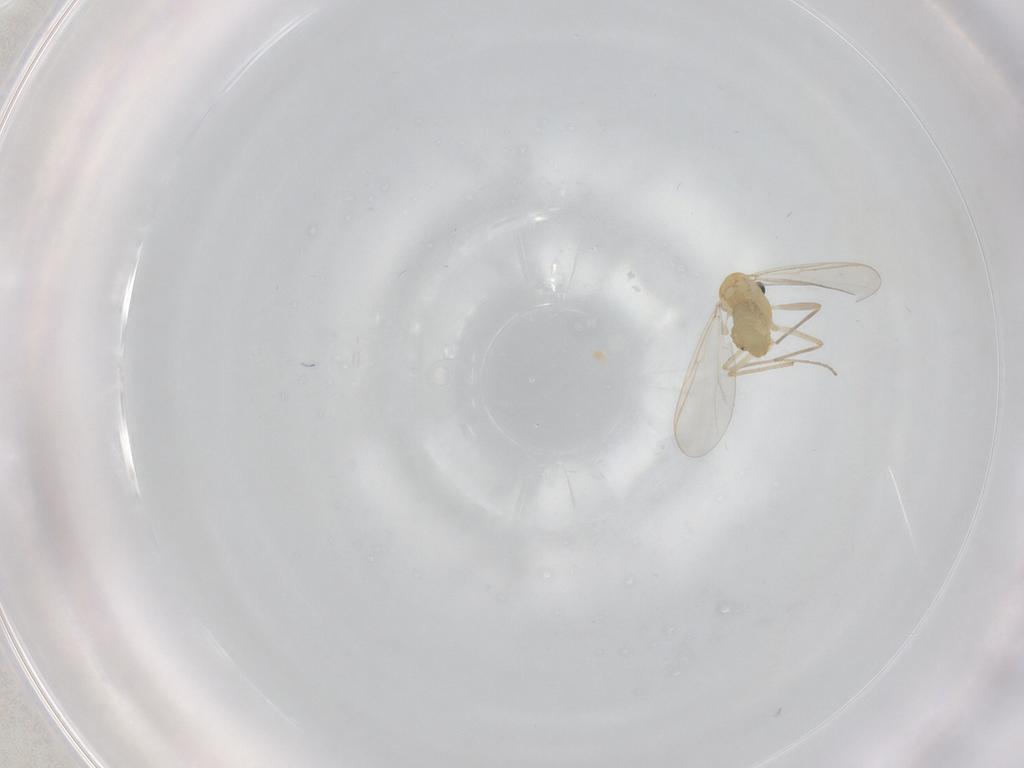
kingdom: Animalia
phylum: Arthropoda
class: Insecta
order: Diptera
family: Chironomidae
